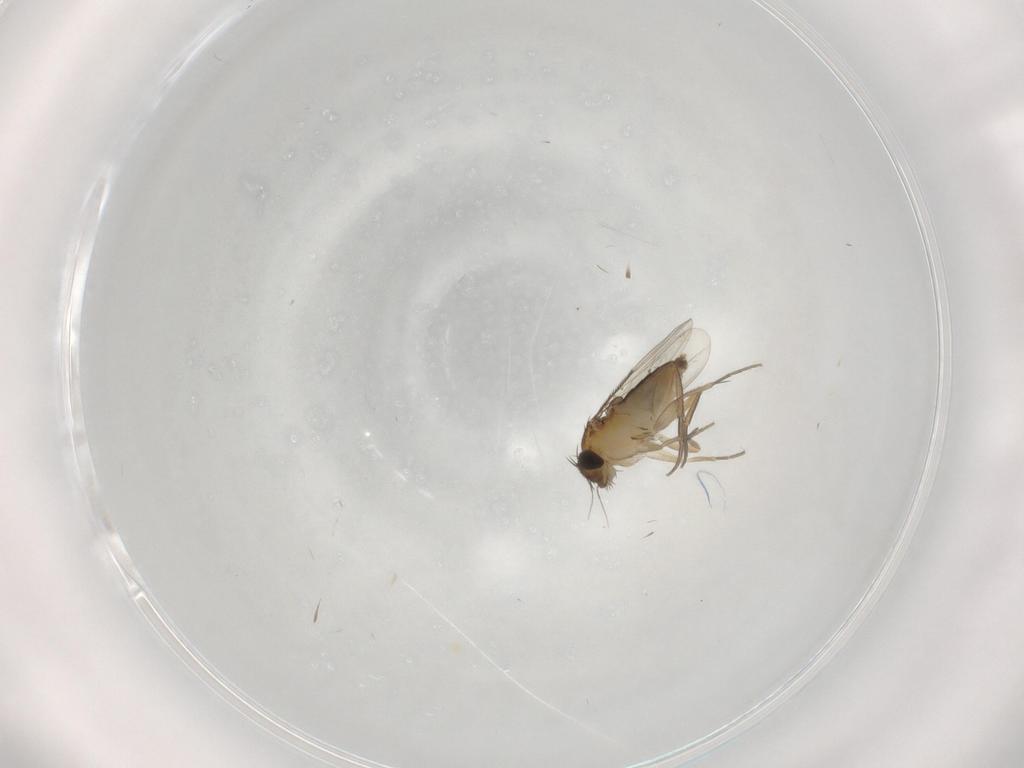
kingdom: Animalia
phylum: Arthropoda
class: Insecta
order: Diptera
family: Phoridae
